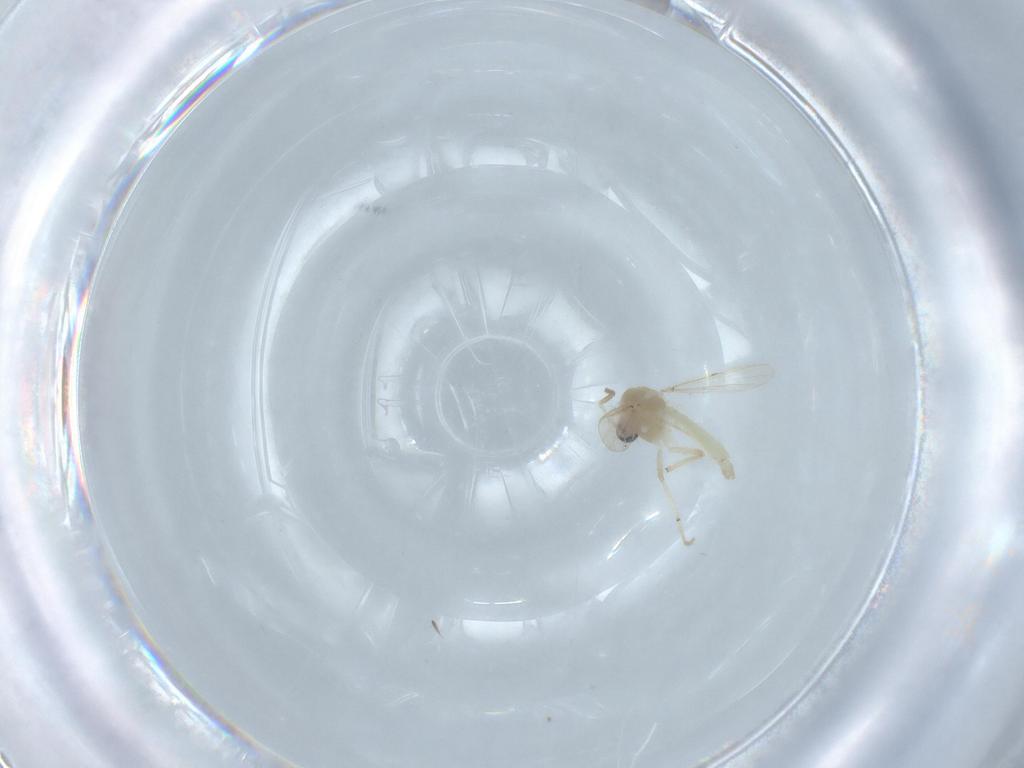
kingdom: Animalia
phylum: Arthropoda
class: Insecta
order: Diptera
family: Chironomidae
